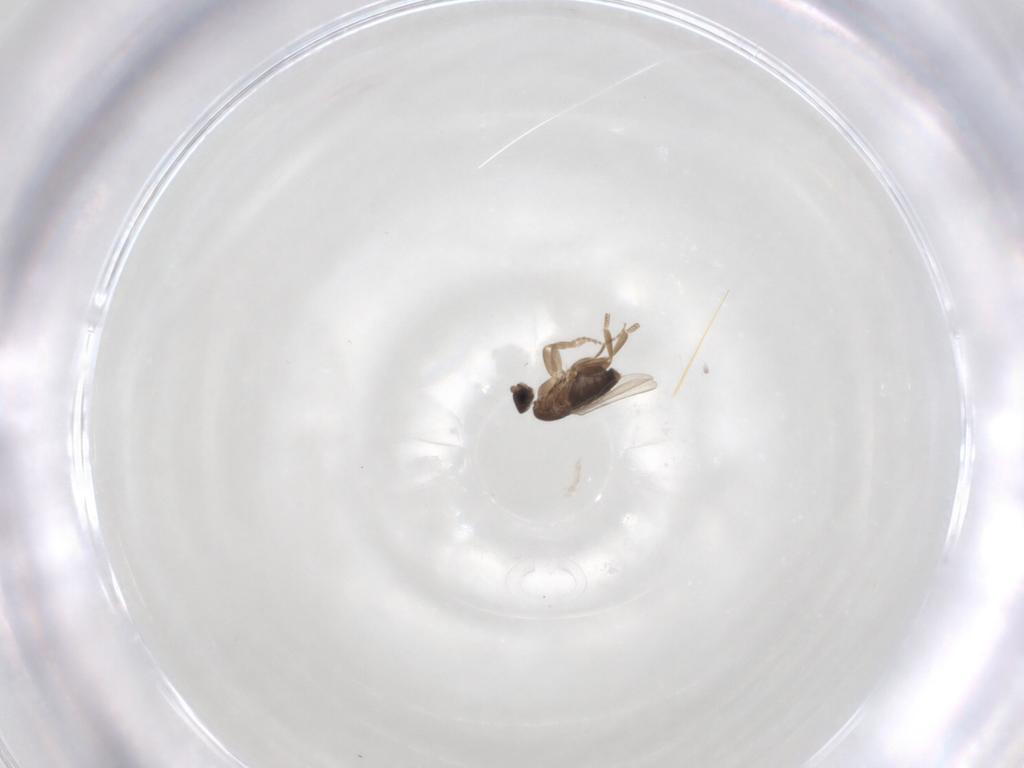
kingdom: Animalia
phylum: Arthropoda
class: Insecta
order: Diptera
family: Phoridae
